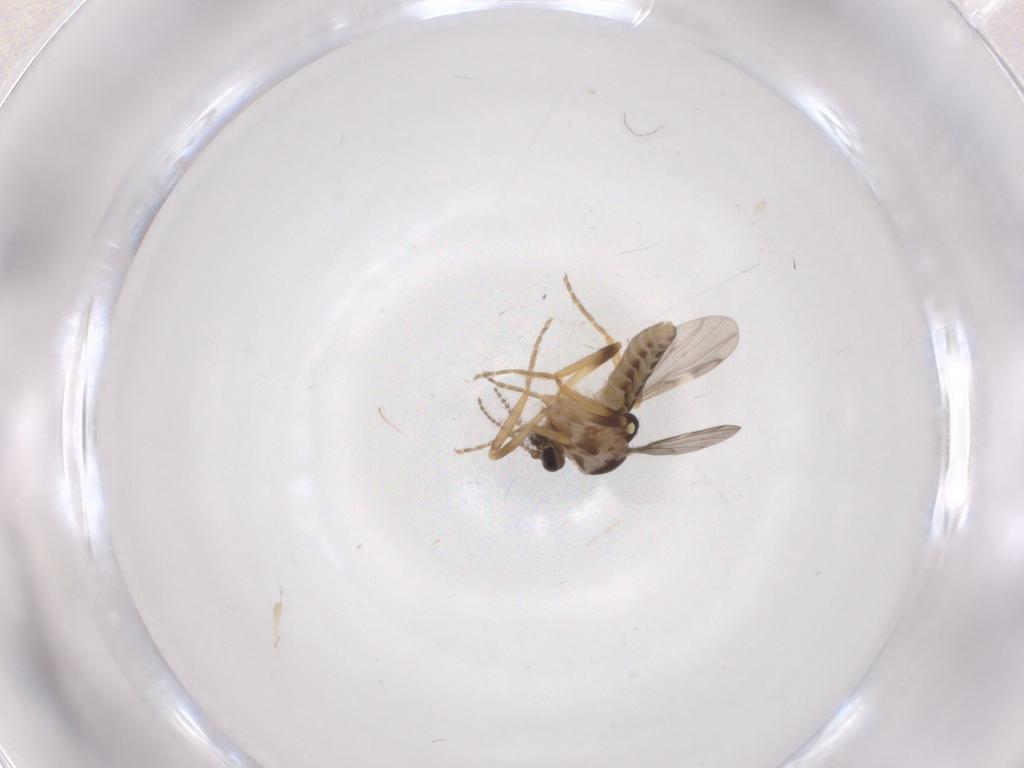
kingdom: Animalia
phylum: Arthropoda
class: Insecta
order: Diptera
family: Ceratopogonidae
